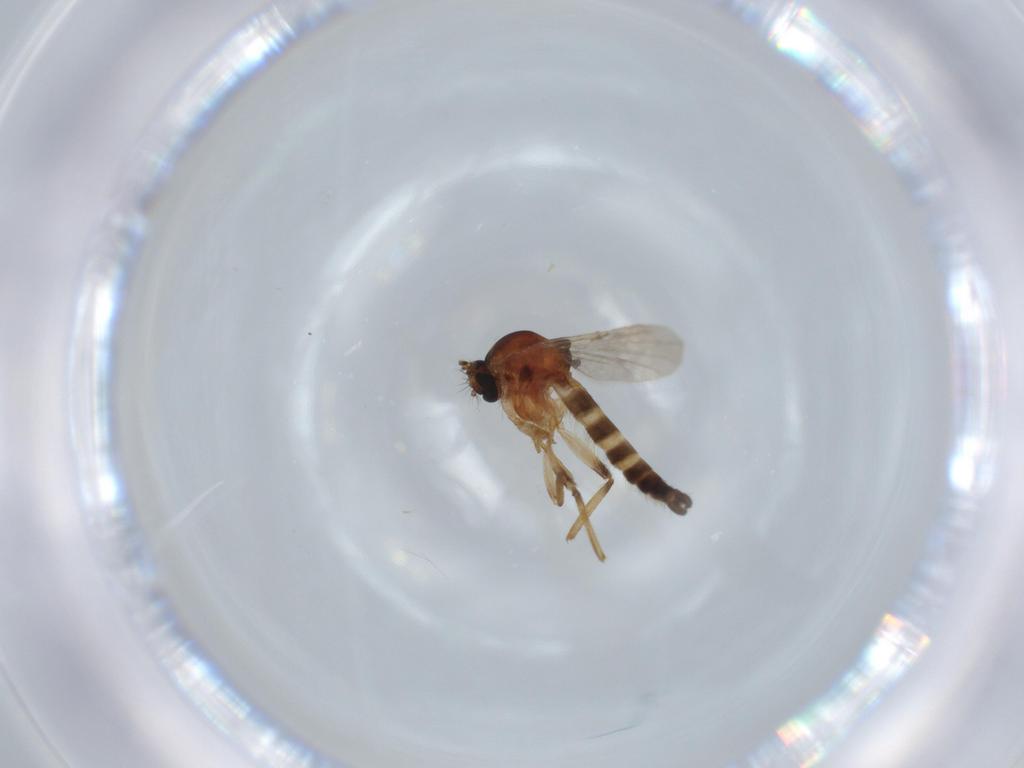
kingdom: Animalia
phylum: Arthropoda
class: Insecta
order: Diptera
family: Ceratopogonidae
